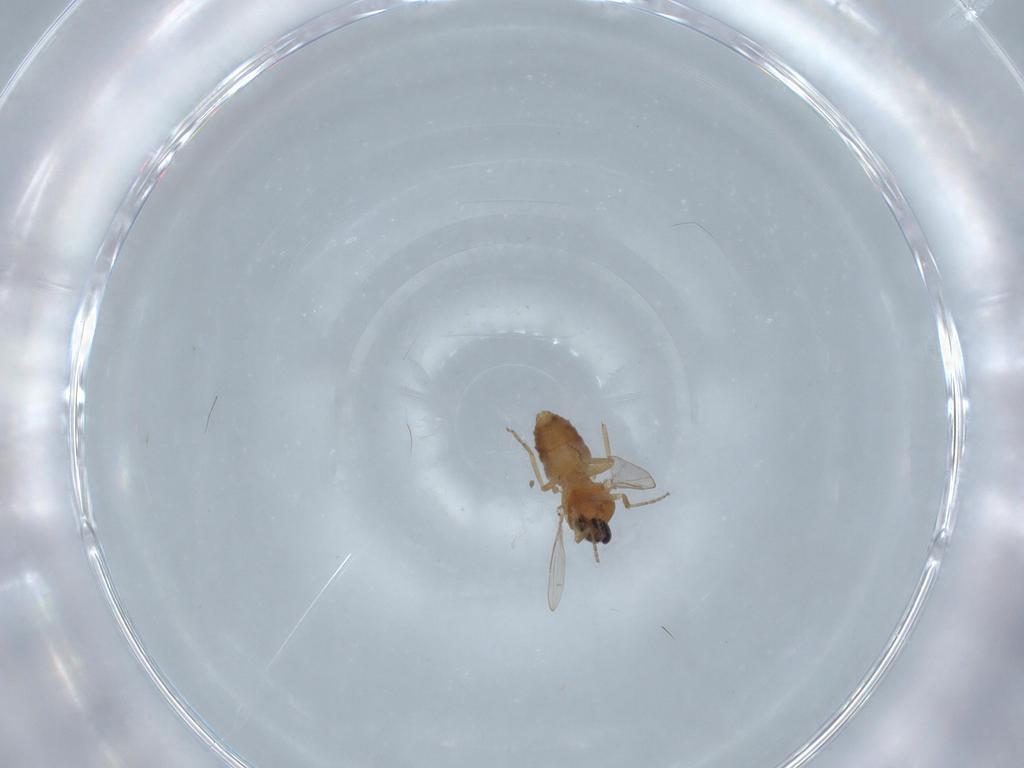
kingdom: Animalia
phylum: Arthropoda
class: Insecta
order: Diptera
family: Ceratopogonidae
